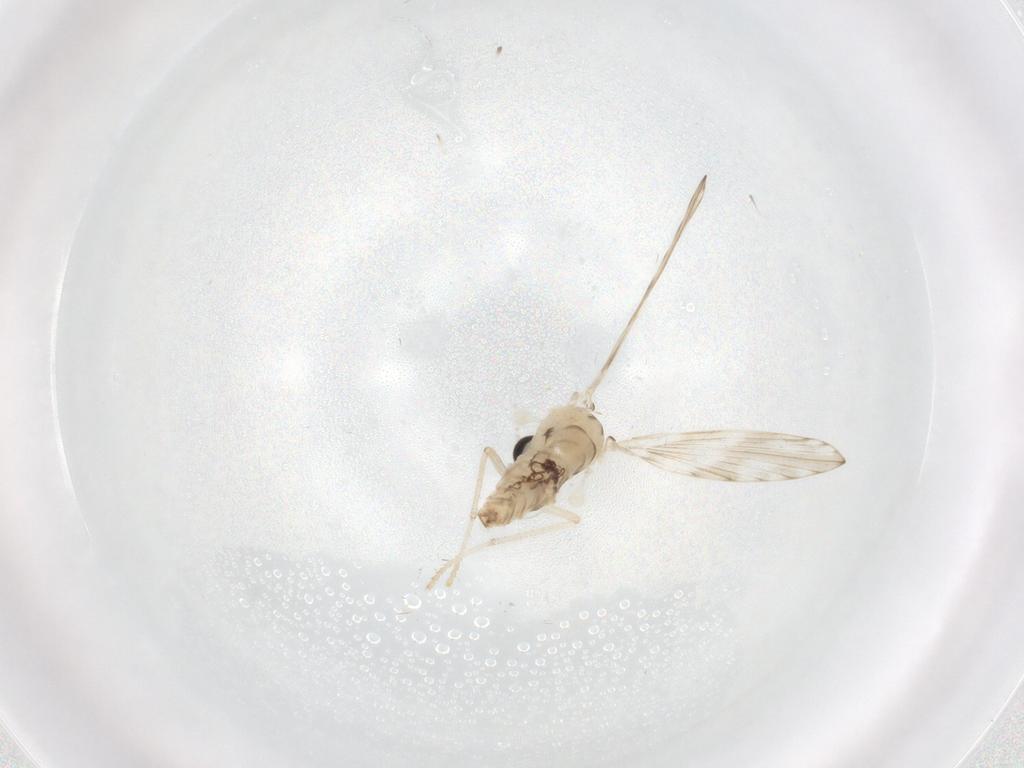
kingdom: Animalia
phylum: Arthropoda
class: Insecta
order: Diptera
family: Psychodidae
